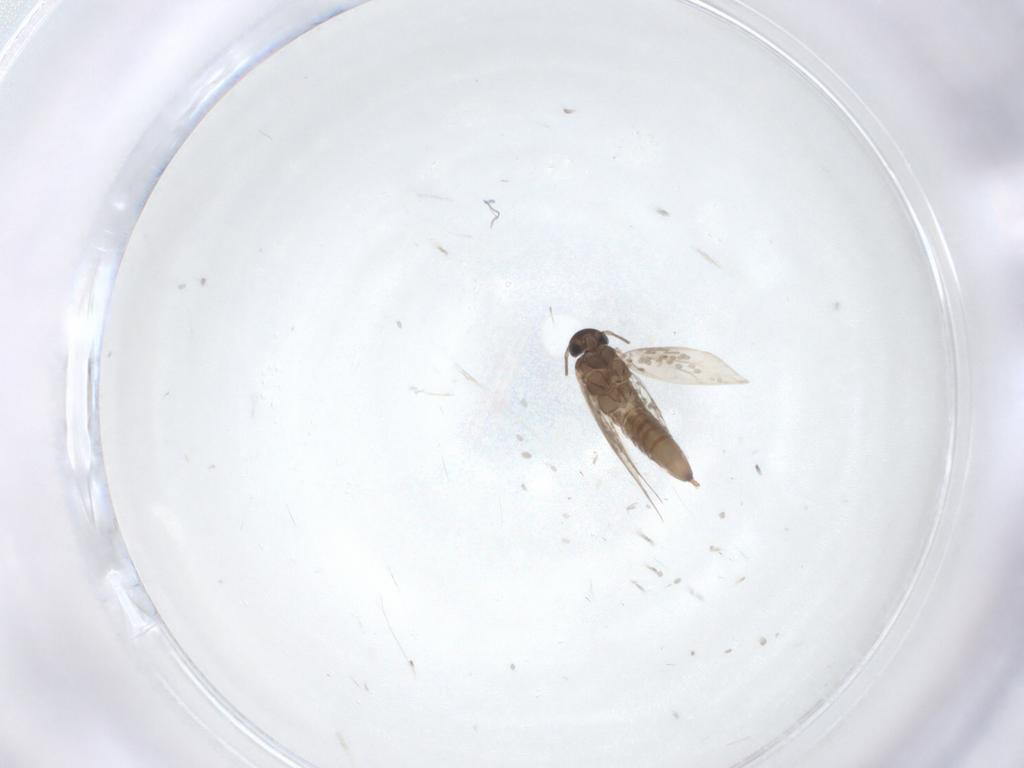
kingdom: Animalia
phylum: Arthropoda
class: Insecta
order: Lepidoptera
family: Heliozelidae
